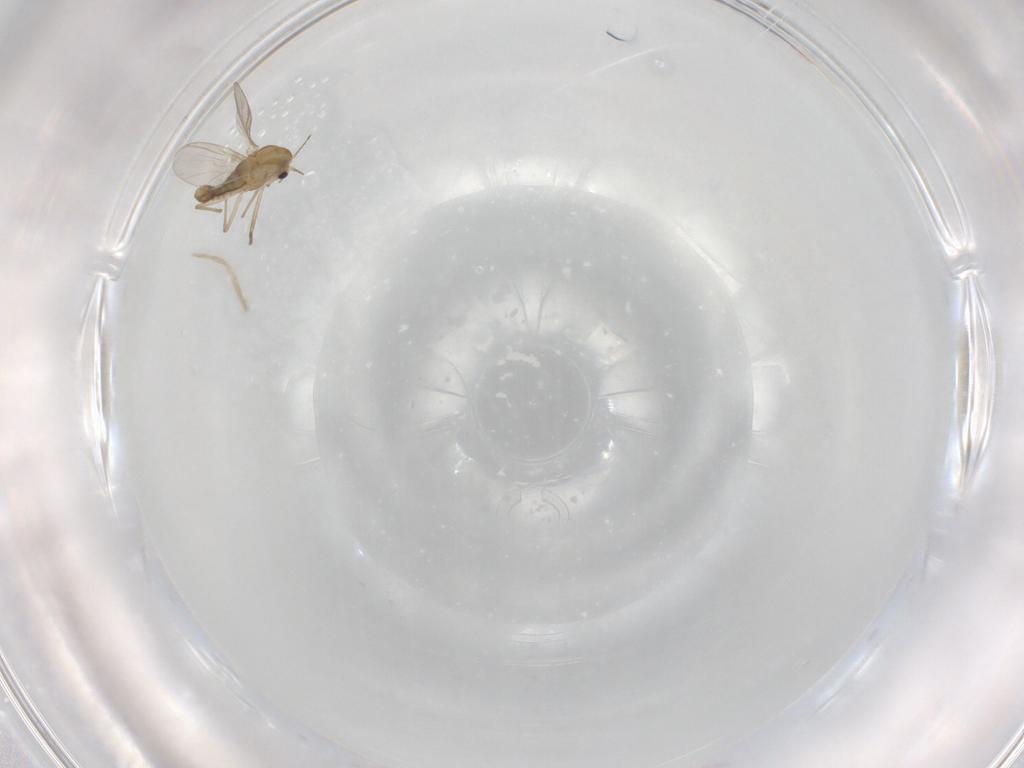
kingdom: Animalia
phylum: Arthropoda
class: Insecta
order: Diptera
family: Chironomidae
